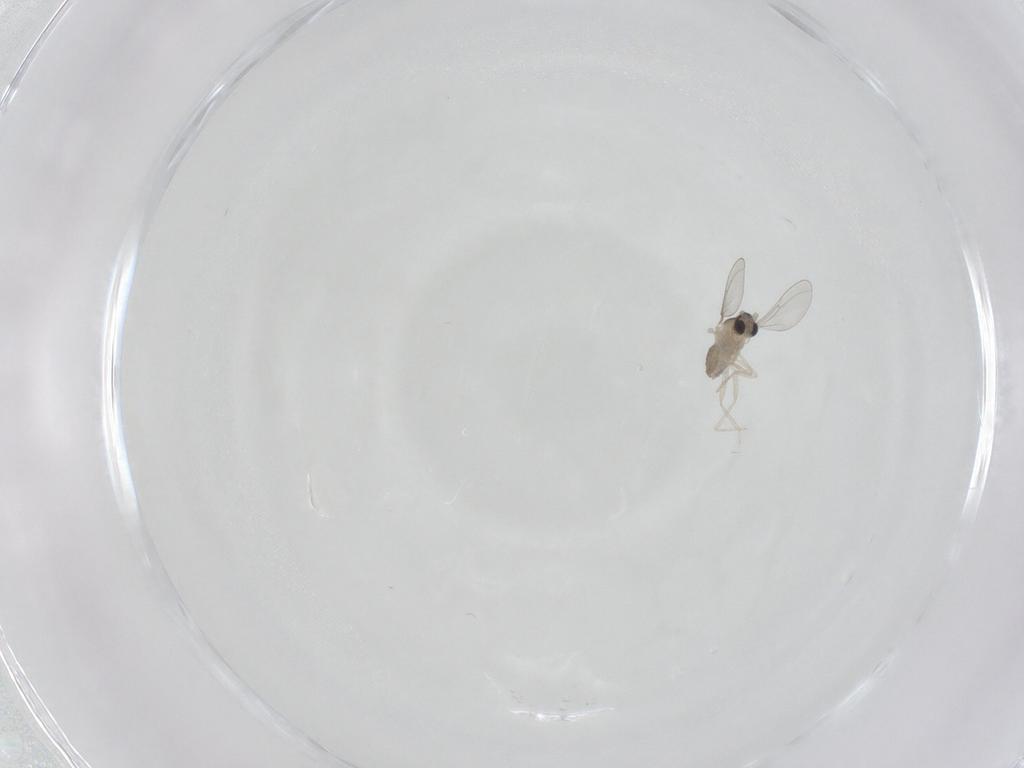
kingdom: Animalia
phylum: Arthropoda
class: Insecta
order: Diptera
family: Cecidomyiidae
